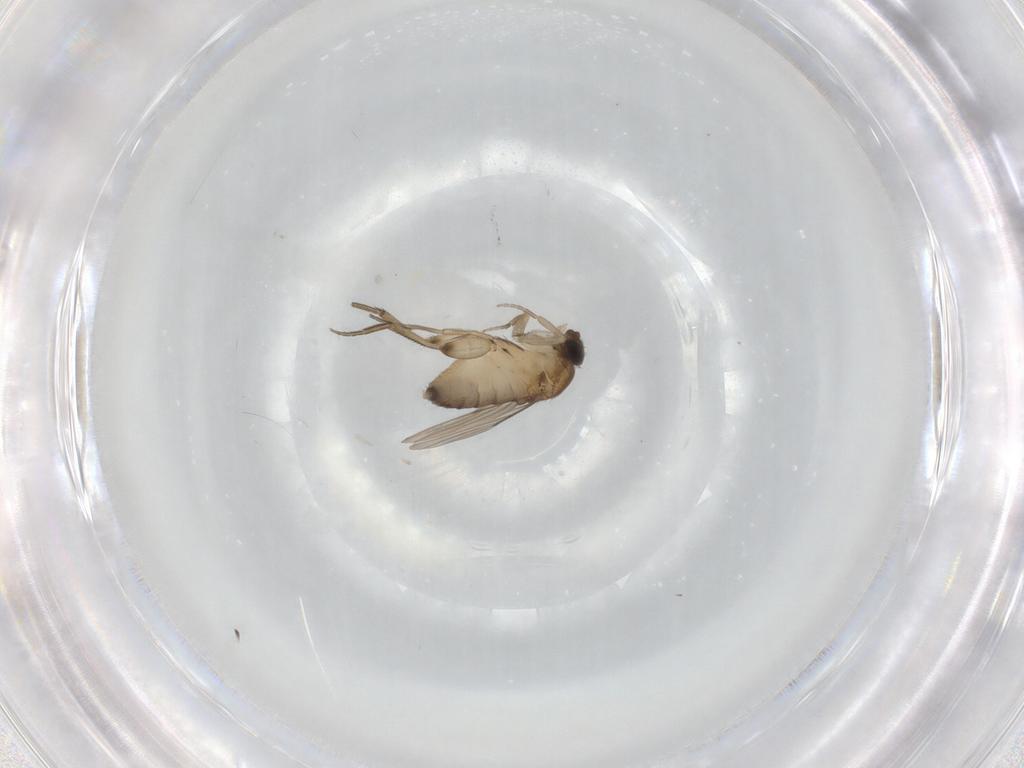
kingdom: Animalia
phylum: Arthropoda
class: Insecta
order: Diptera
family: Phoridae
